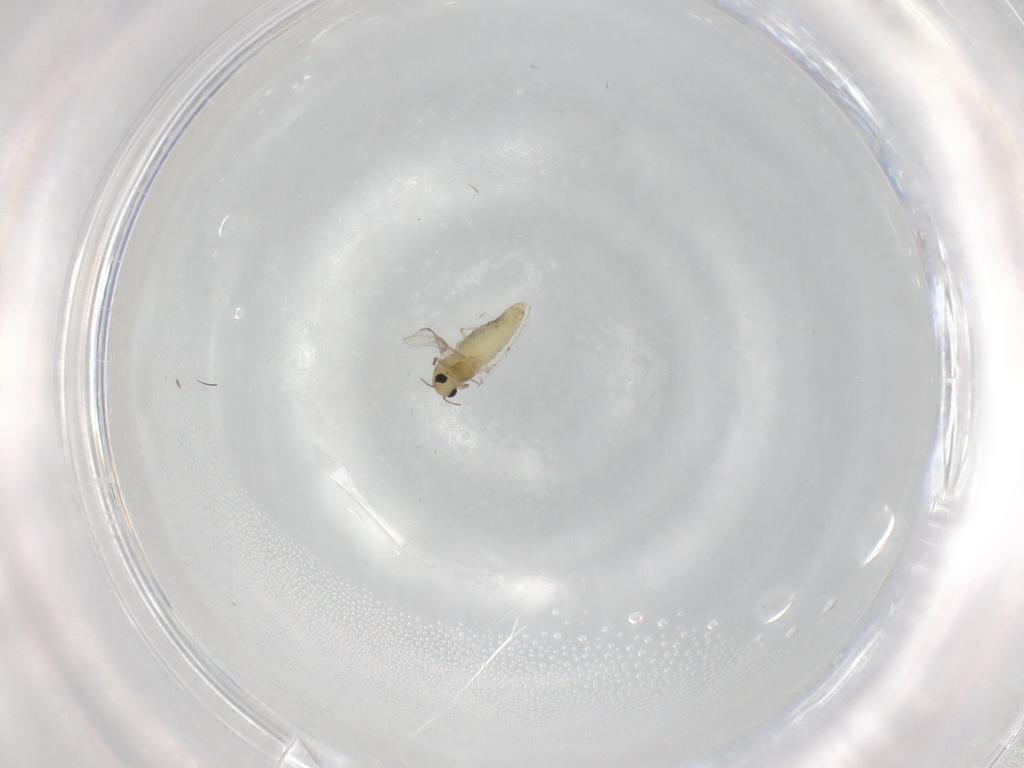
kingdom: Animalia
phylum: Arthropoda
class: Insecta
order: Diptera
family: Chironomidae
